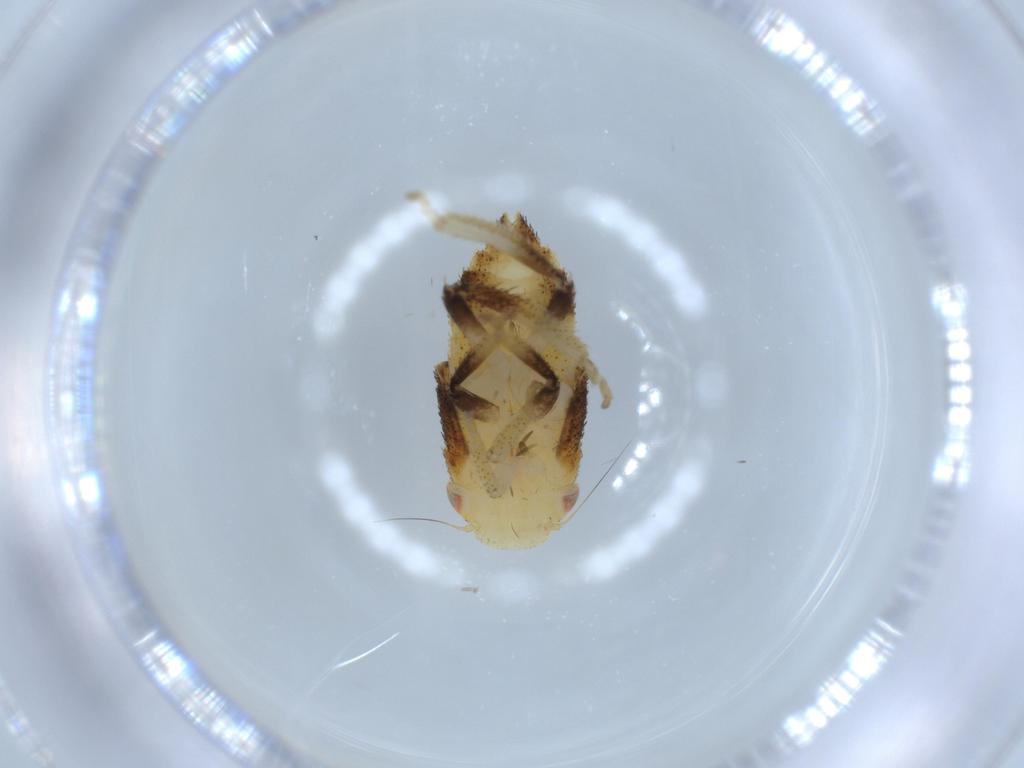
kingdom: Animalia
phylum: Arthropoda
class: Insecta
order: Hemiptera
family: Cicadellidae
